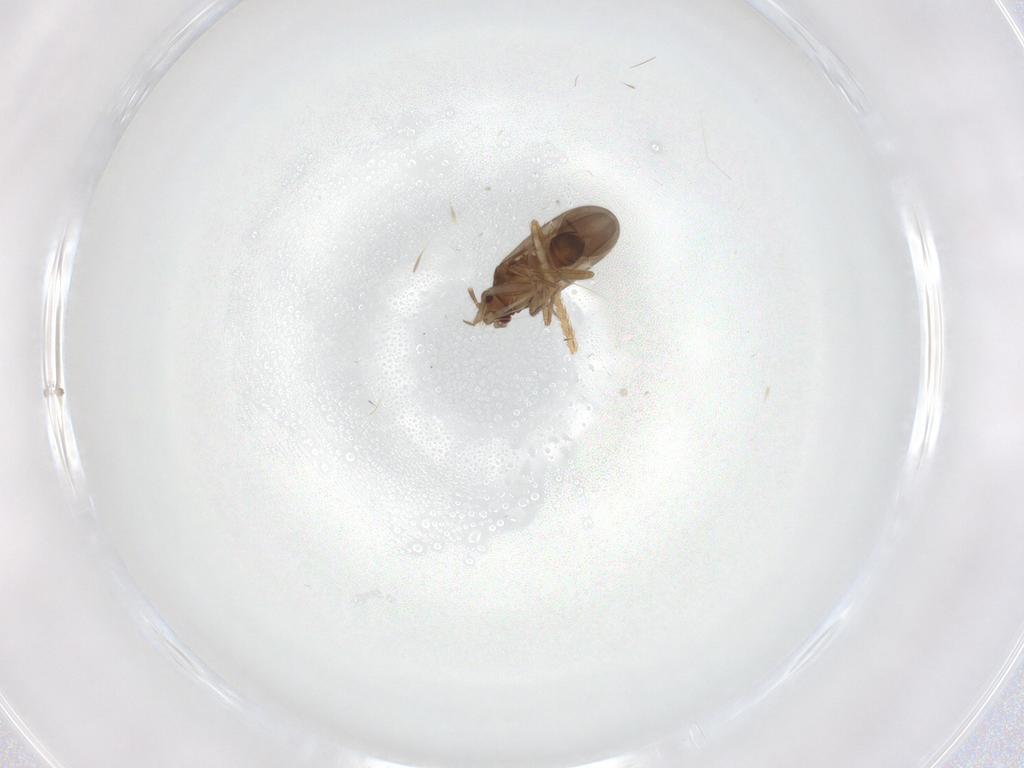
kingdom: Animalia
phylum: Arthropoda
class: Insecta
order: Hemiptera
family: Ceratocombidae
